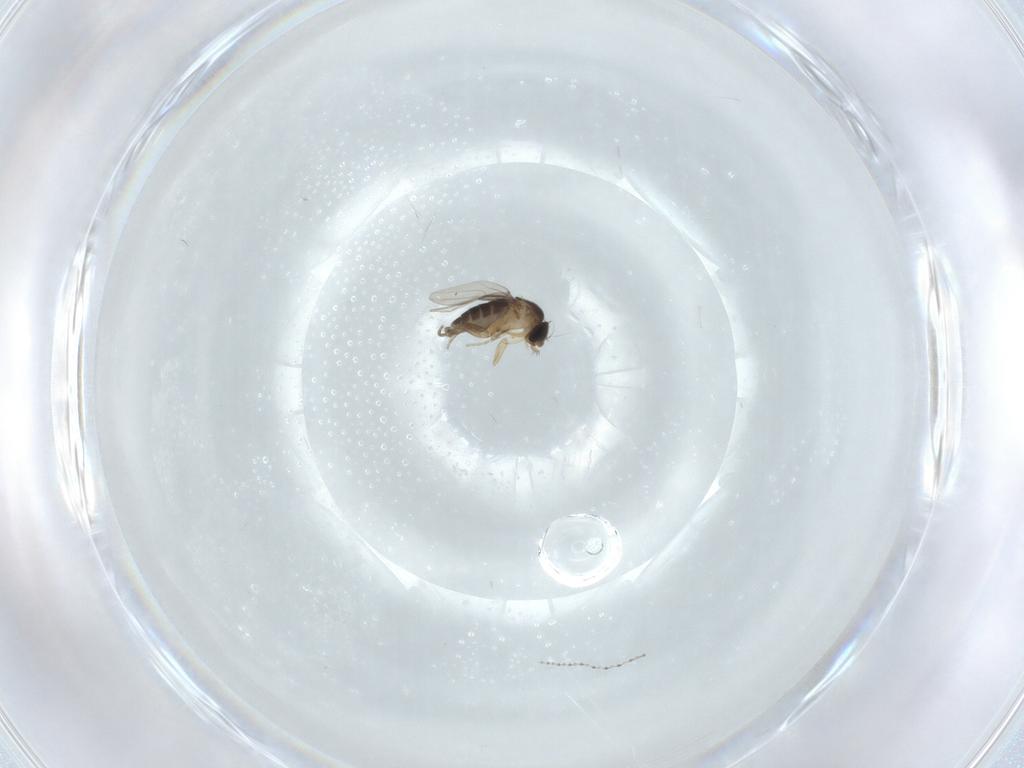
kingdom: Animalia
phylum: Arthropoda
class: Insecta
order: Diptera
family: Phoridae
